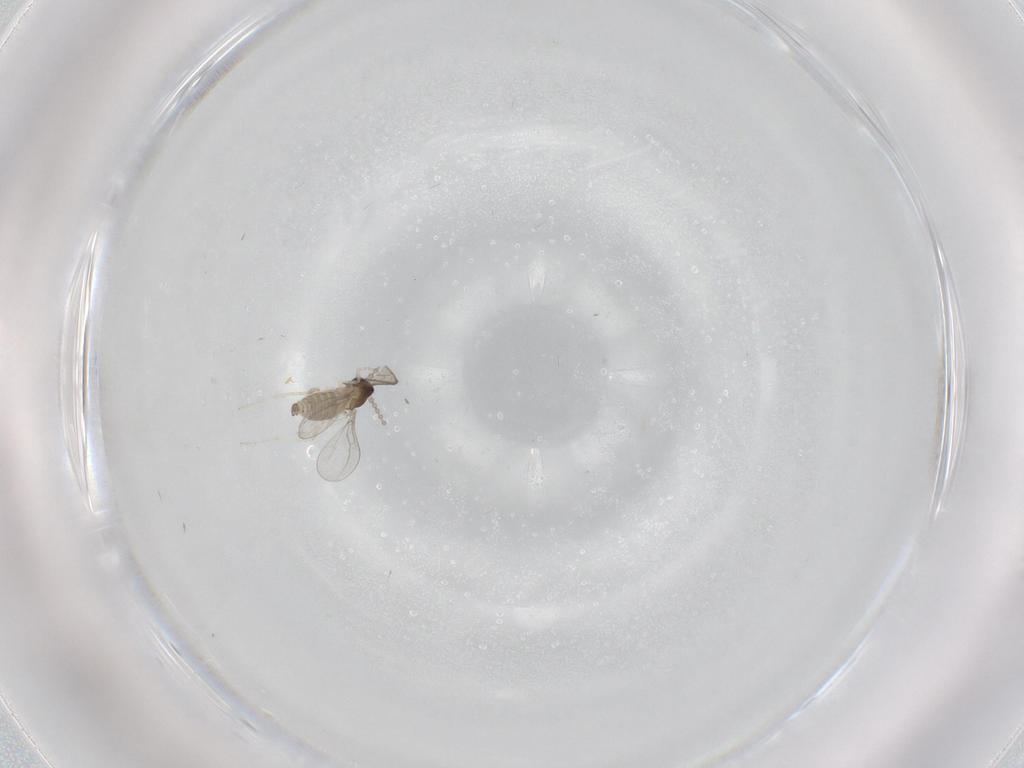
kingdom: Animalia
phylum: Arthropoda
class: Insecta
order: Diptera
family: Cecidomyiidae
